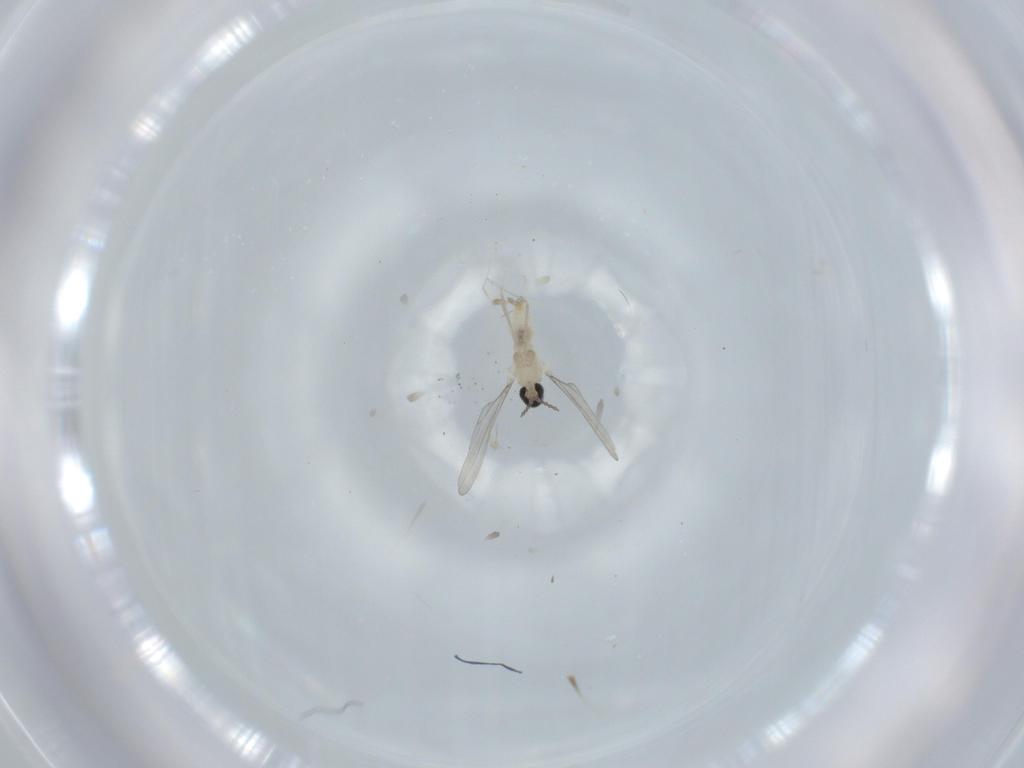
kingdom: Animalia
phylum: Arthropoda
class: Insecta
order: Diptera
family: Cecidomyiidae
